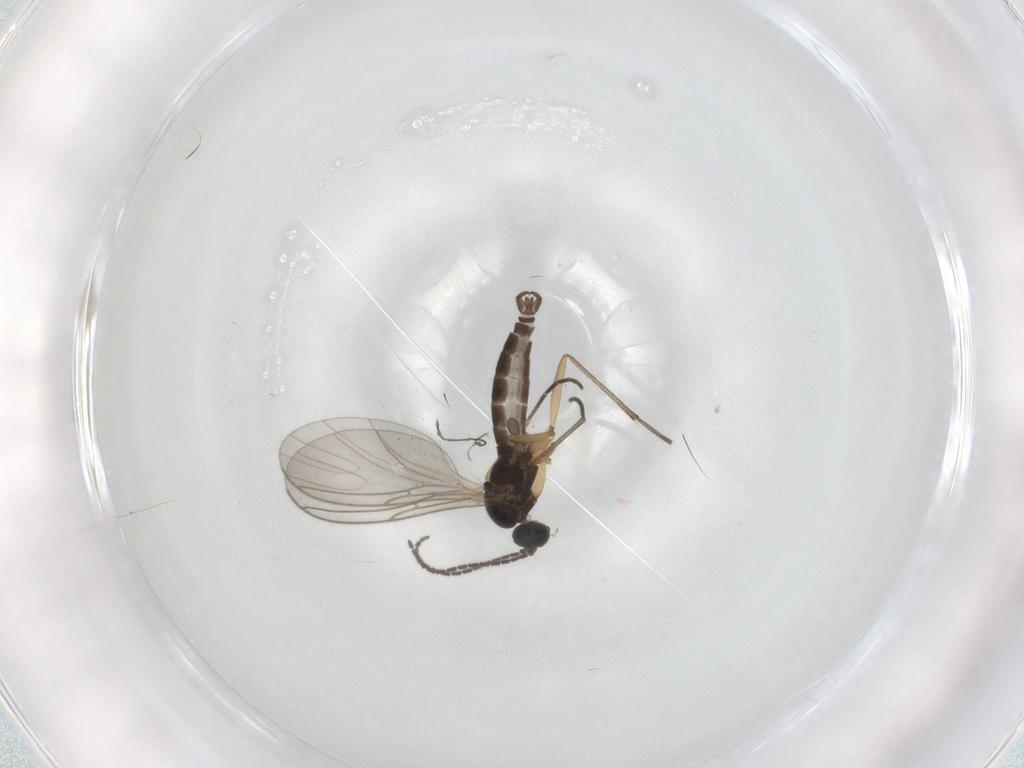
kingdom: Animalia
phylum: Arthropoda
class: Insecta
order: Diptera
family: Sciaridae
